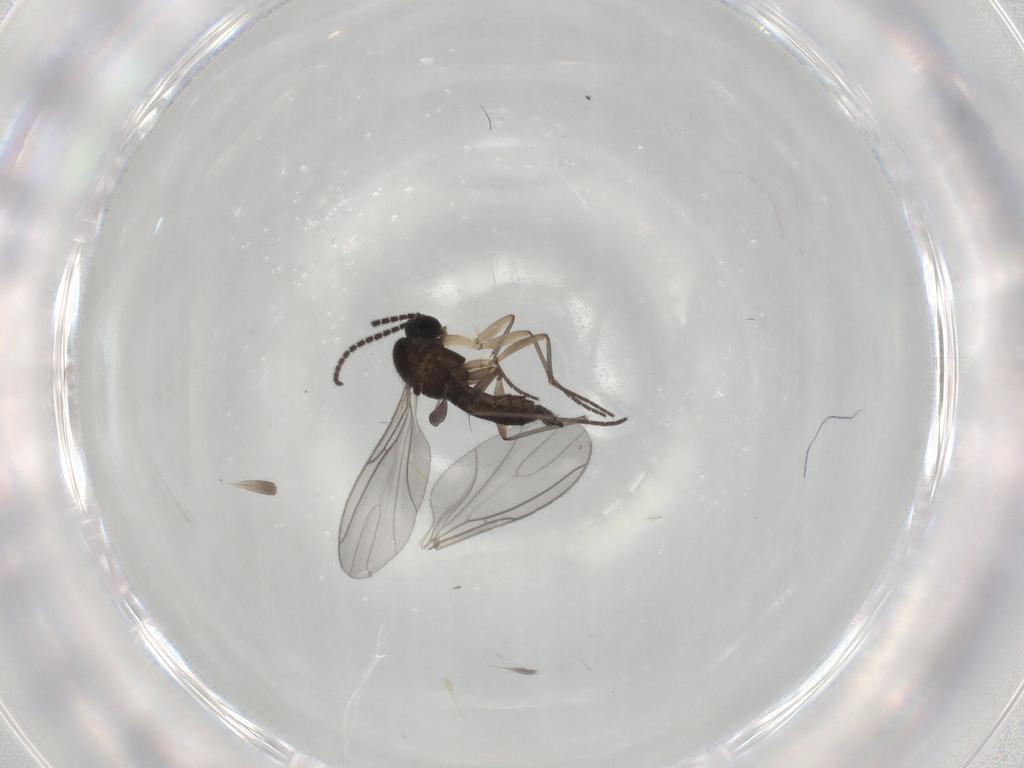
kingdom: Animalia
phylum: Arthropoda
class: Insecta
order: Diptera
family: Sciaridae
